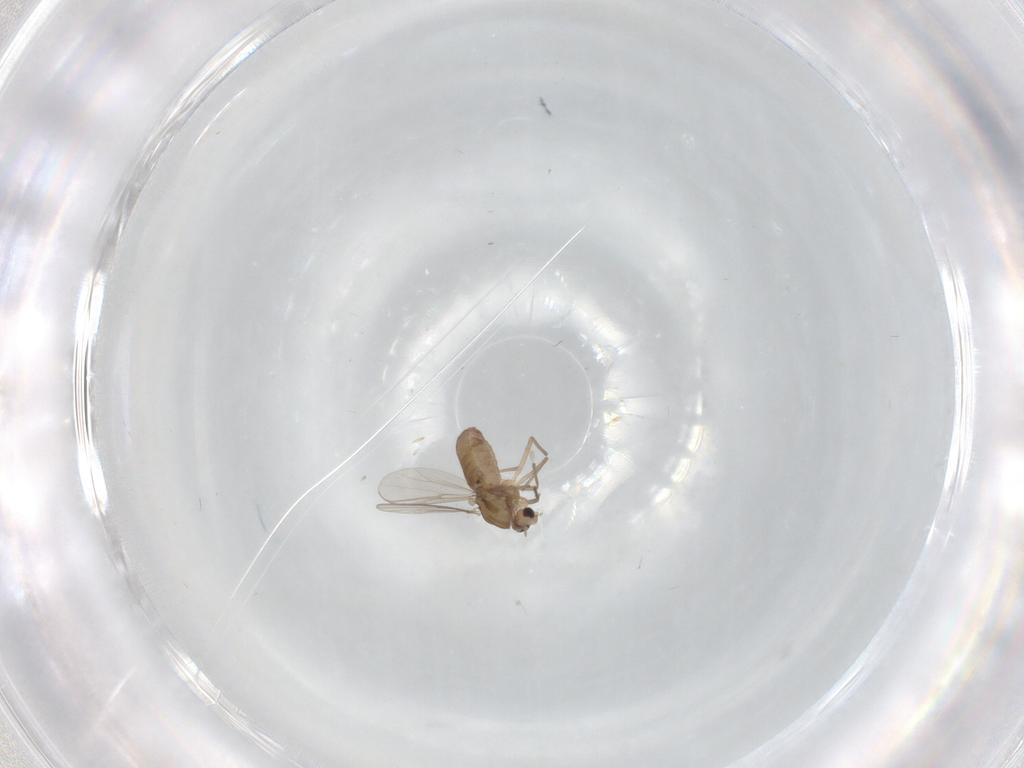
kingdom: Animalia
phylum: Arthropoda
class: Insecta
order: Diptera
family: Chironomidae
